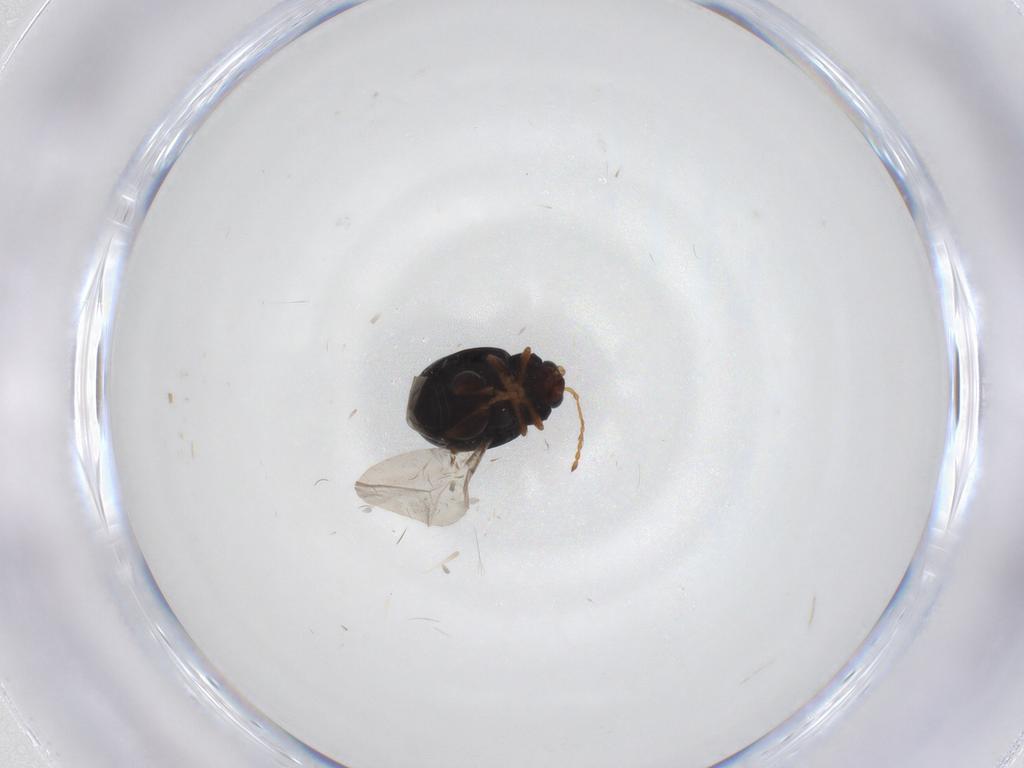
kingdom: Animalia
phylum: Arthropoda
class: Insecta
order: Coleoptera
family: Chrysomelidae
